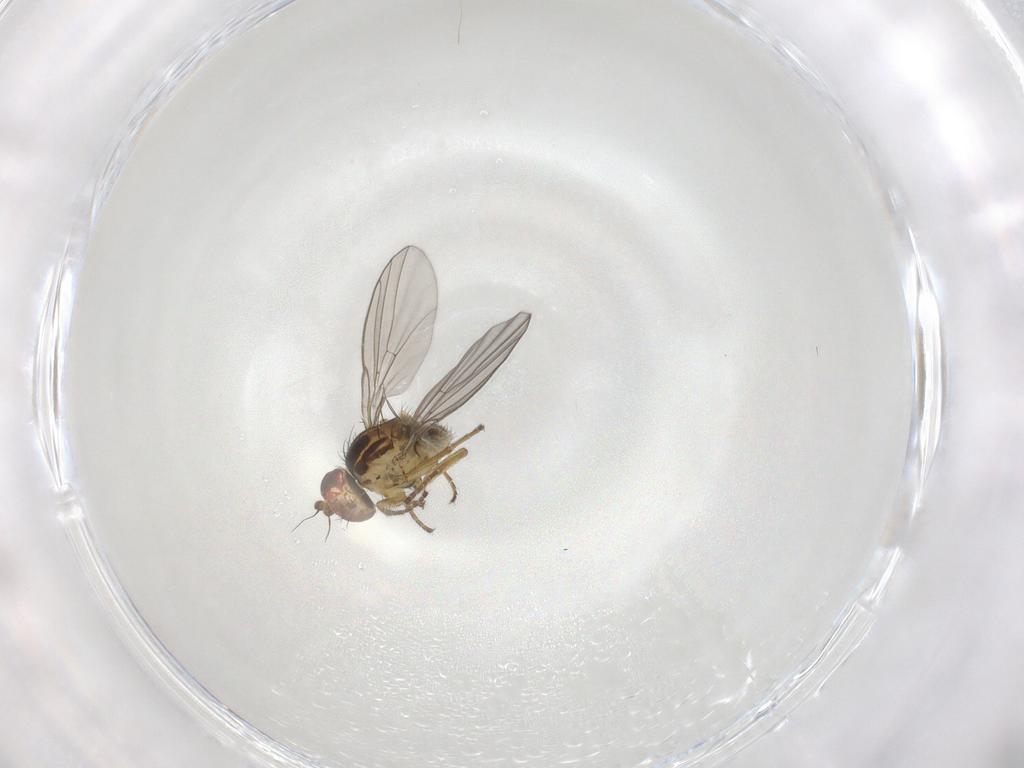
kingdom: Animalia
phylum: Arthropoda
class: Insecta
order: Diptera
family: Agromyzidae
